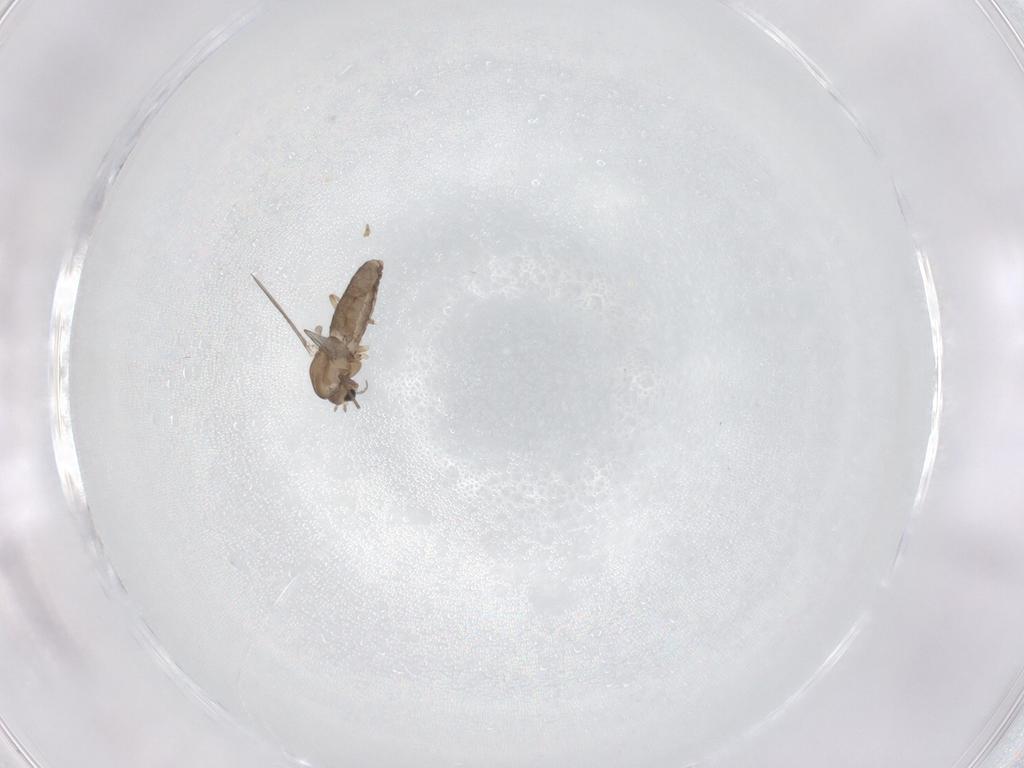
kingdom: Animalia
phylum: Arthropoda
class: Insecta
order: Diptera
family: Chironomidae
